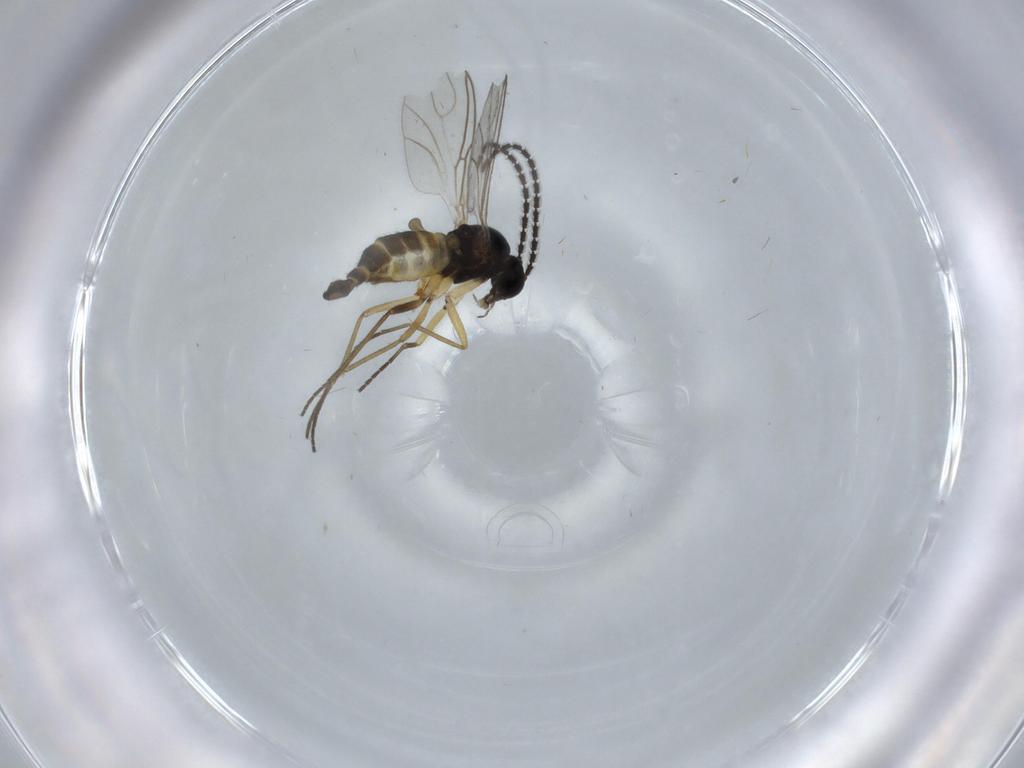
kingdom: Animalia
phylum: Arthropoda
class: Insecta
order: Diptera
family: Sciaridae
